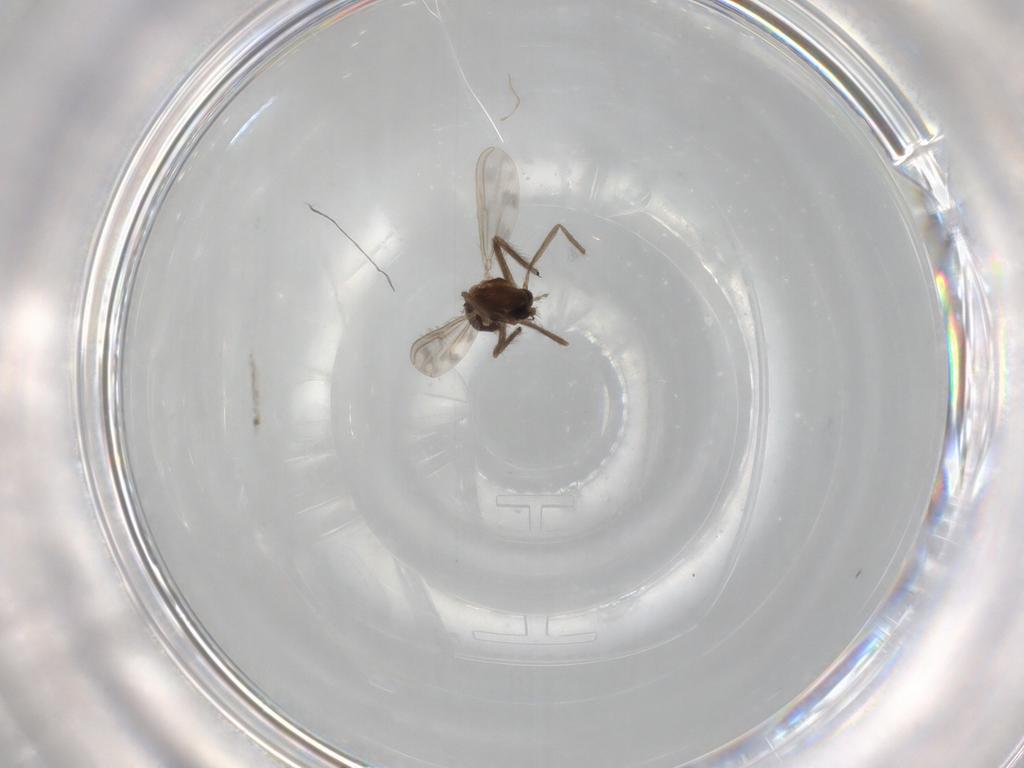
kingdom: Animalia
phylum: Arthropoda
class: Insecta
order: Diptera
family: Chironomidae
